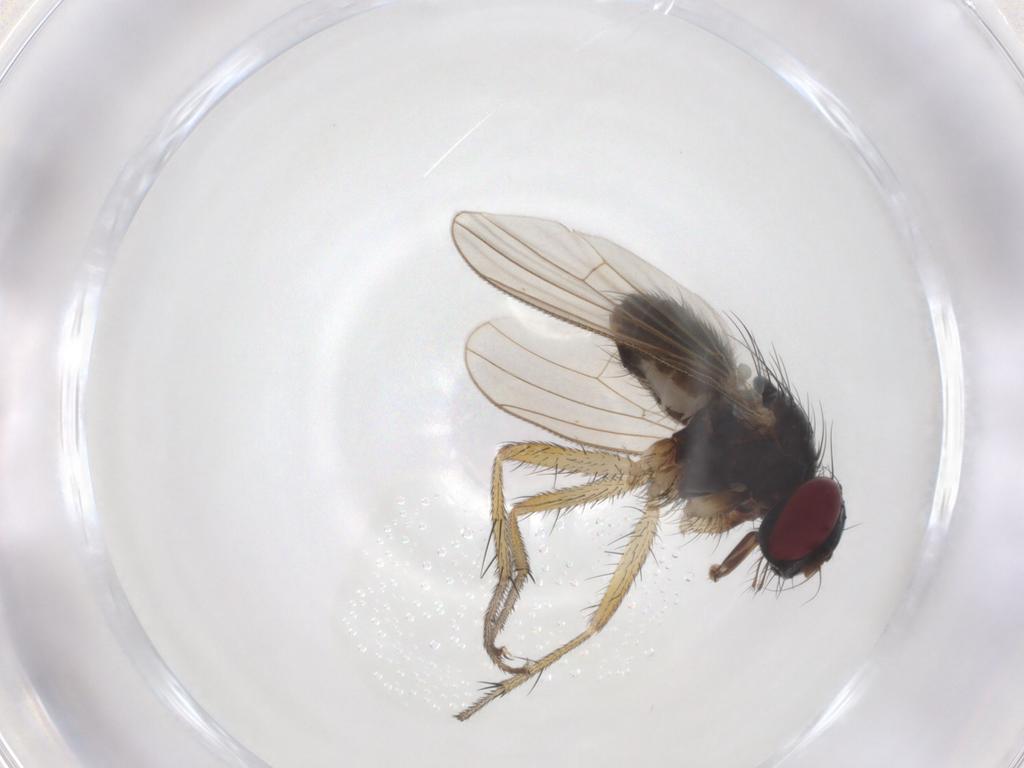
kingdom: Animalia
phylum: Arthropoda
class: Insecta
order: Diptera
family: Muscidae
